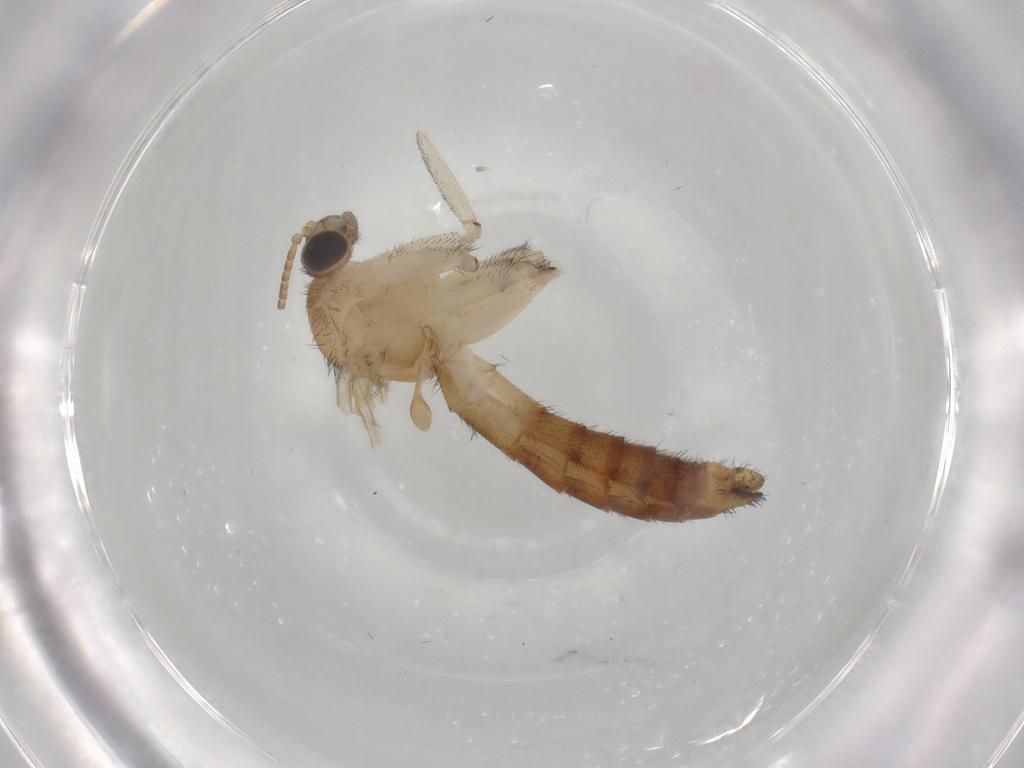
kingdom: Animalia
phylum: Arthropoda
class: Insecta
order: Diptera
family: Keroplatidae
